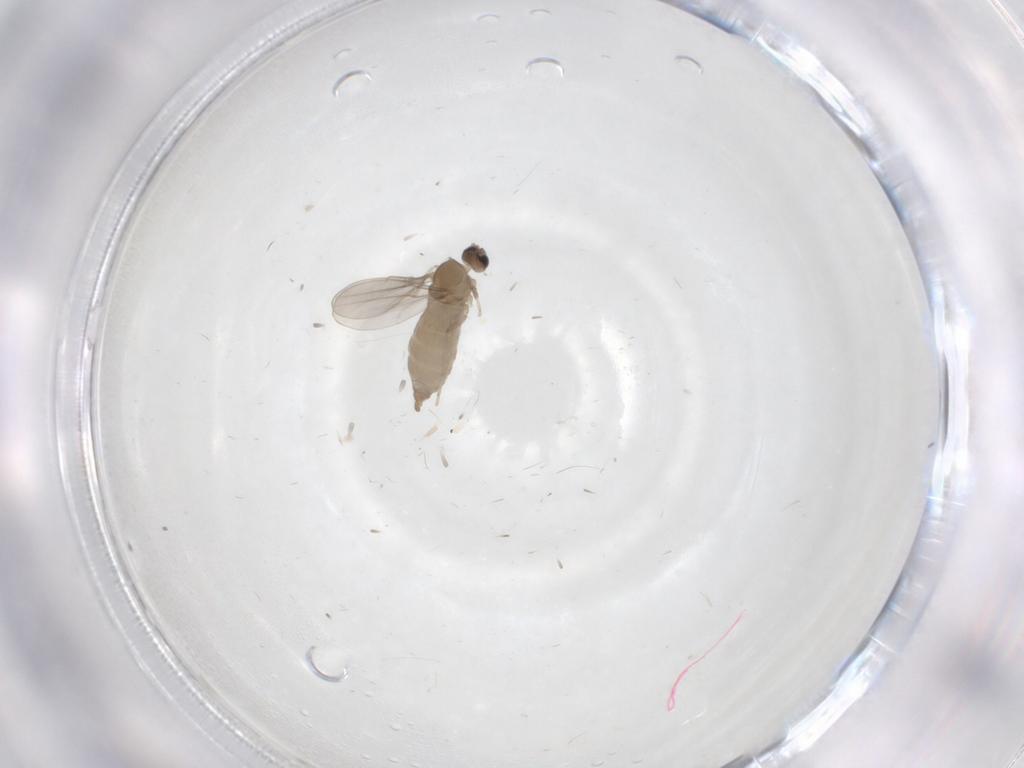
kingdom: Animalia
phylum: Arthropoda
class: Insecta
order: Diptera
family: Cecidomyiidae
